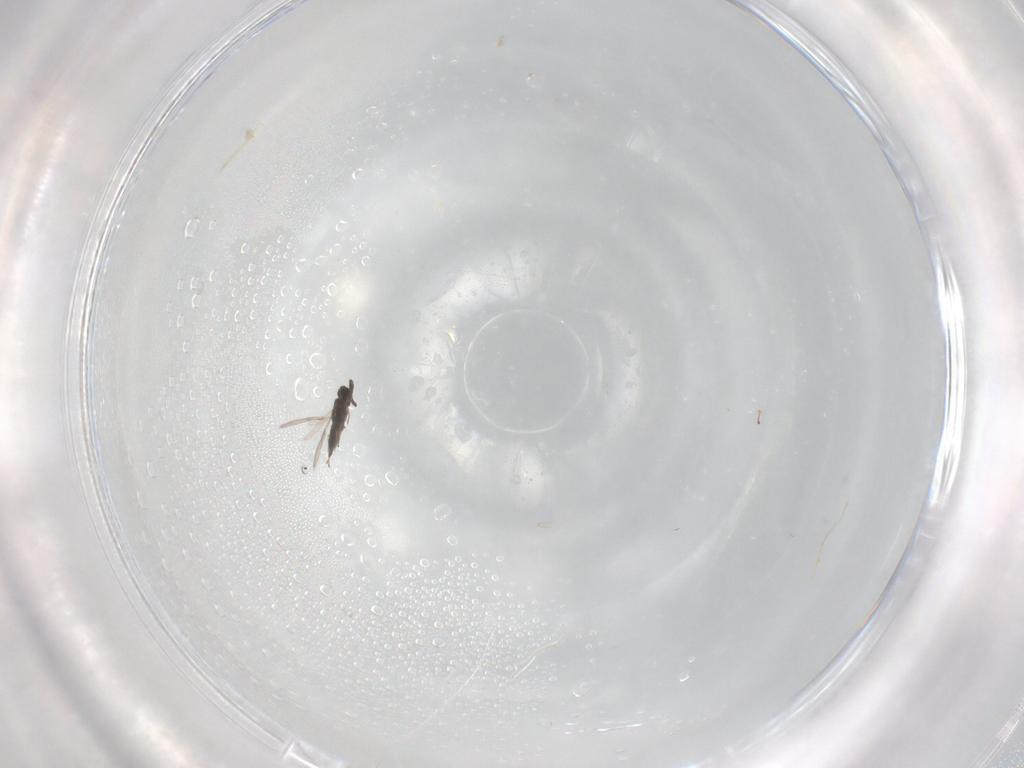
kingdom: Animalia
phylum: Arthropoda
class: Insecta
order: Hymenoptera
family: Scelionidae
